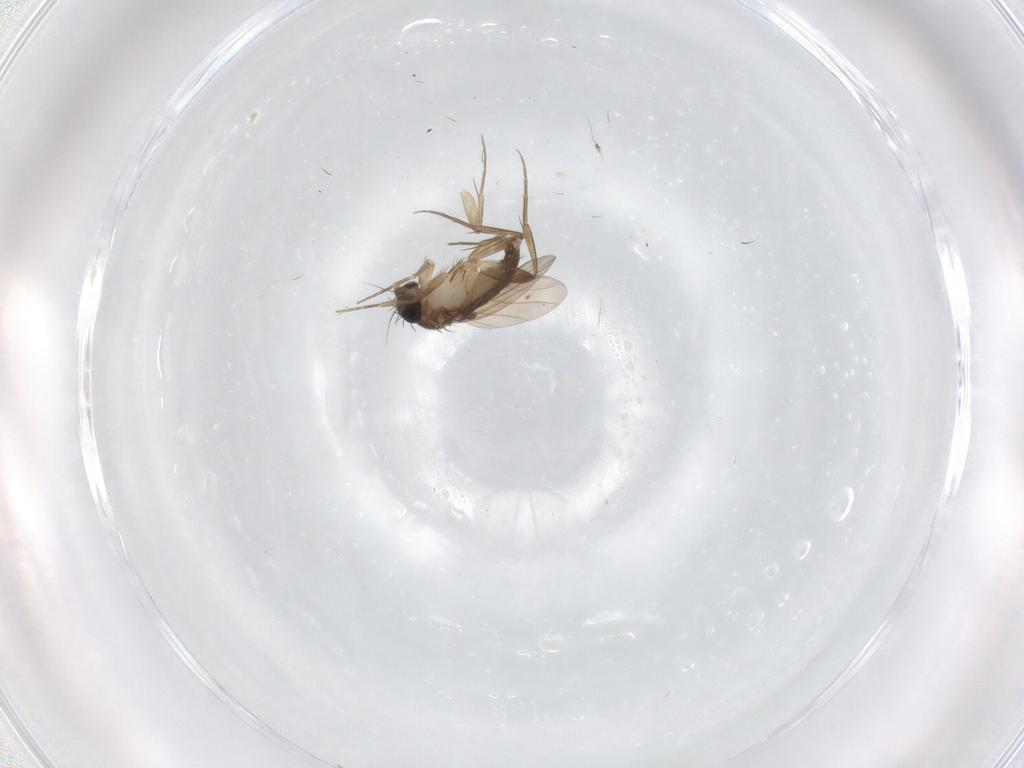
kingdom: Animalia
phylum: Arthropoda
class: Insecta
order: Diptera
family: Phoridae
